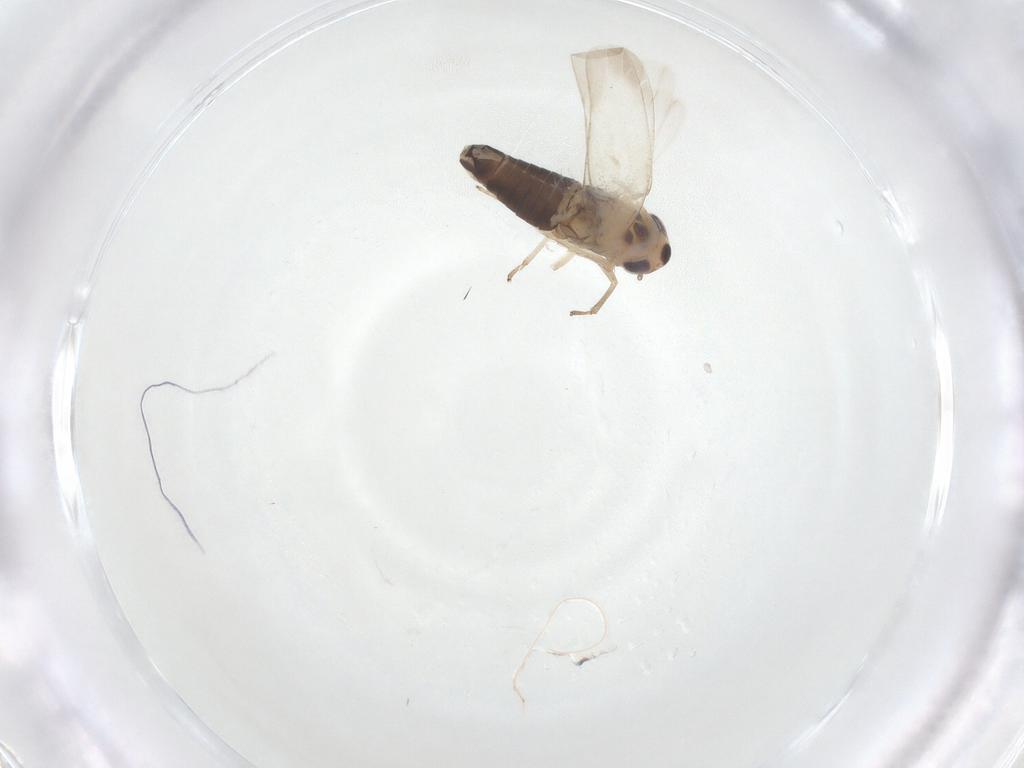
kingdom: Animalia
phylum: Arthropoda
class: Insecta
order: Hemiptera
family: Cicadellidae
